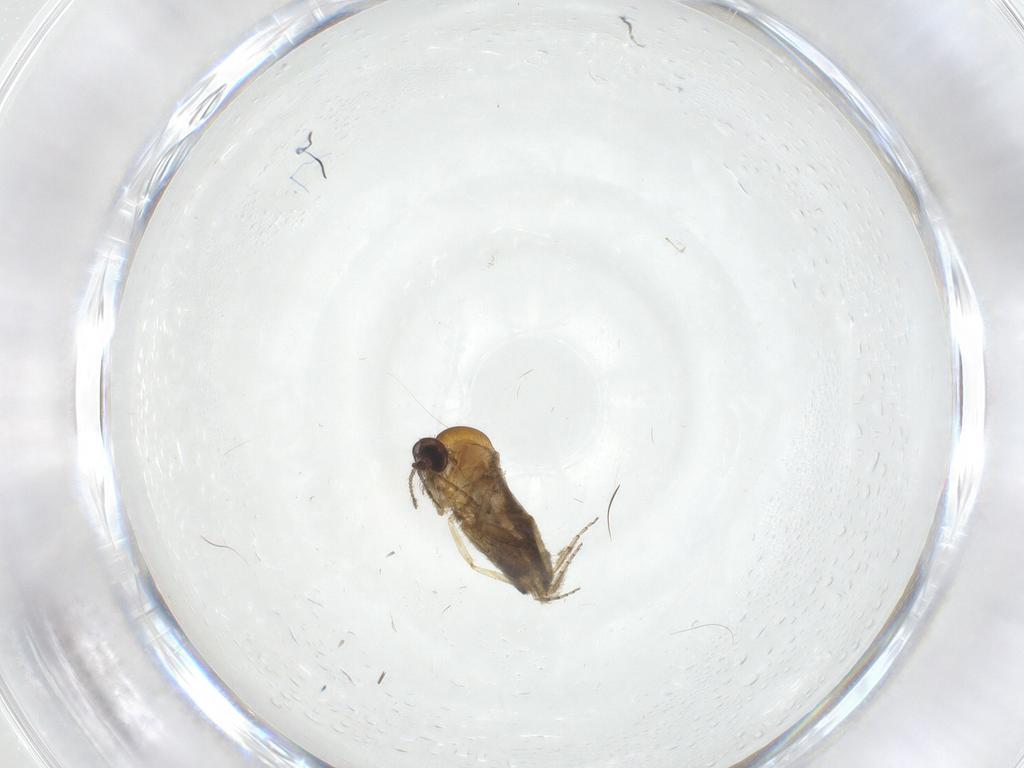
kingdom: Animalia
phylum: Arthropoda
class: Insecta
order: Diptera
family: Ceratopogonidae
